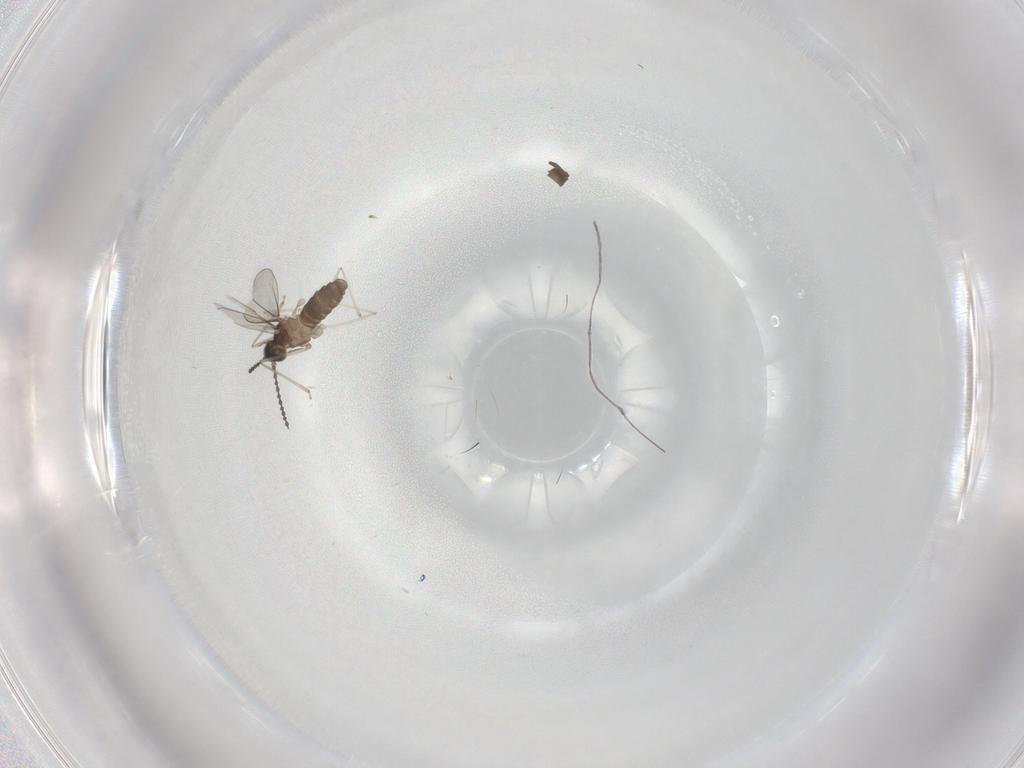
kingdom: Animalia
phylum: Arthropoda
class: Insecta
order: Diptera
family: Cecidomyiidae
